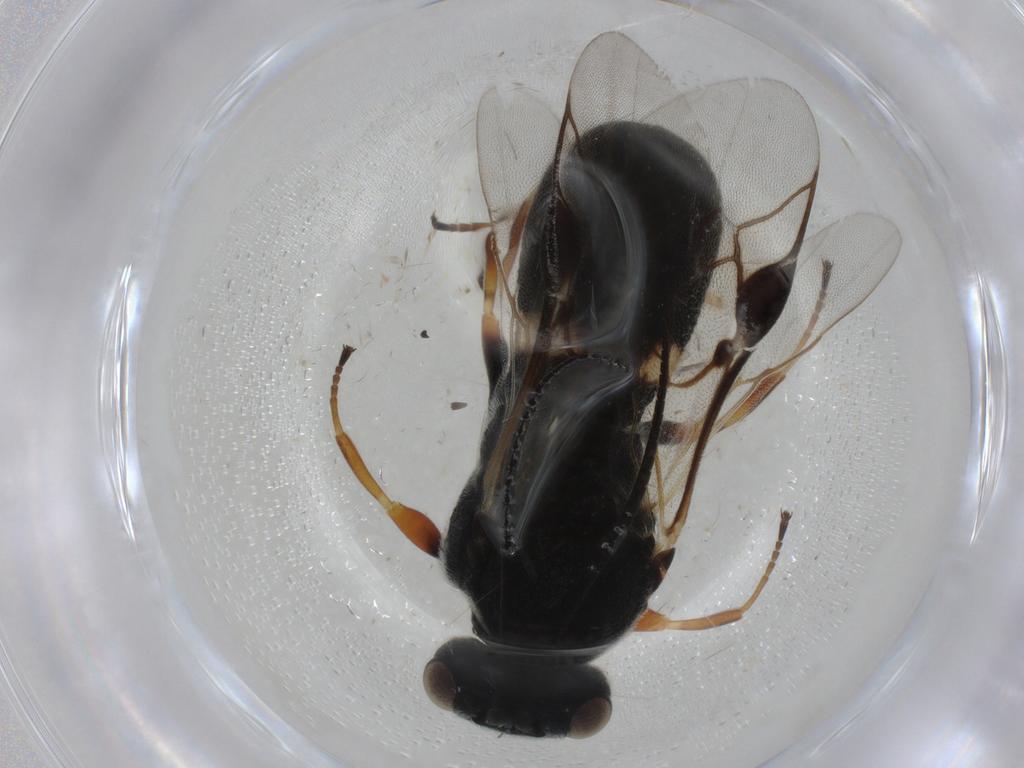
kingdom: Animalia
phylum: Arthropoda
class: Insecta
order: Hymenoptera
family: Braconidae
